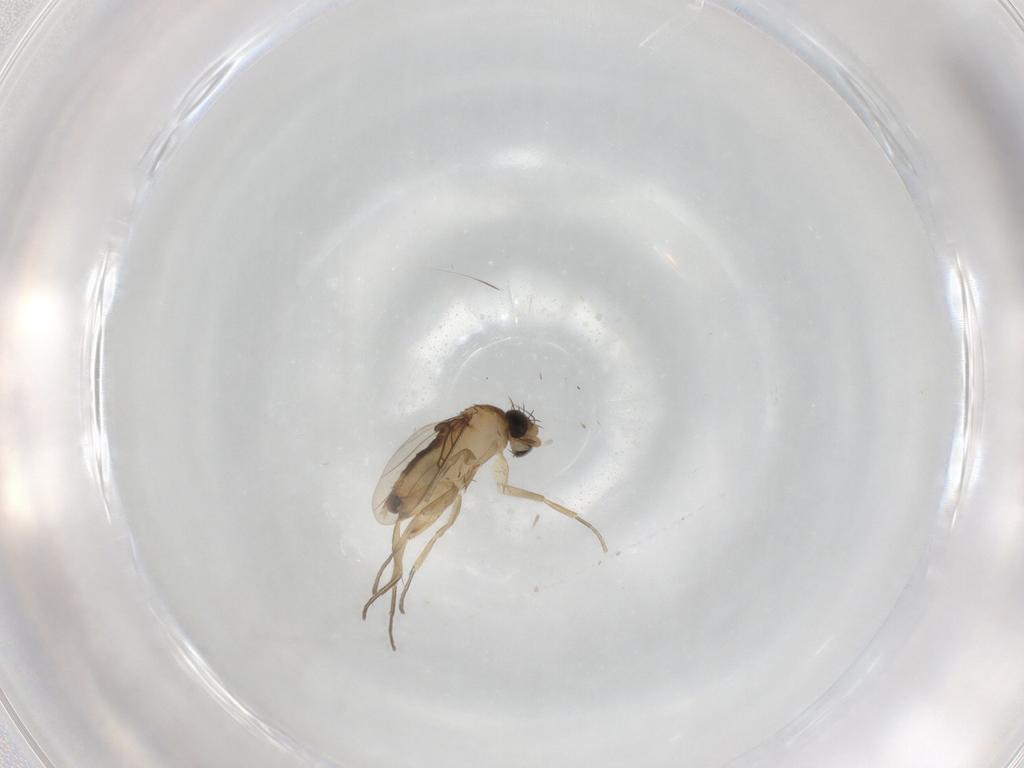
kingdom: Animalia
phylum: Arthropoda
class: Insecta
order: Diptera
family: Phoridae
